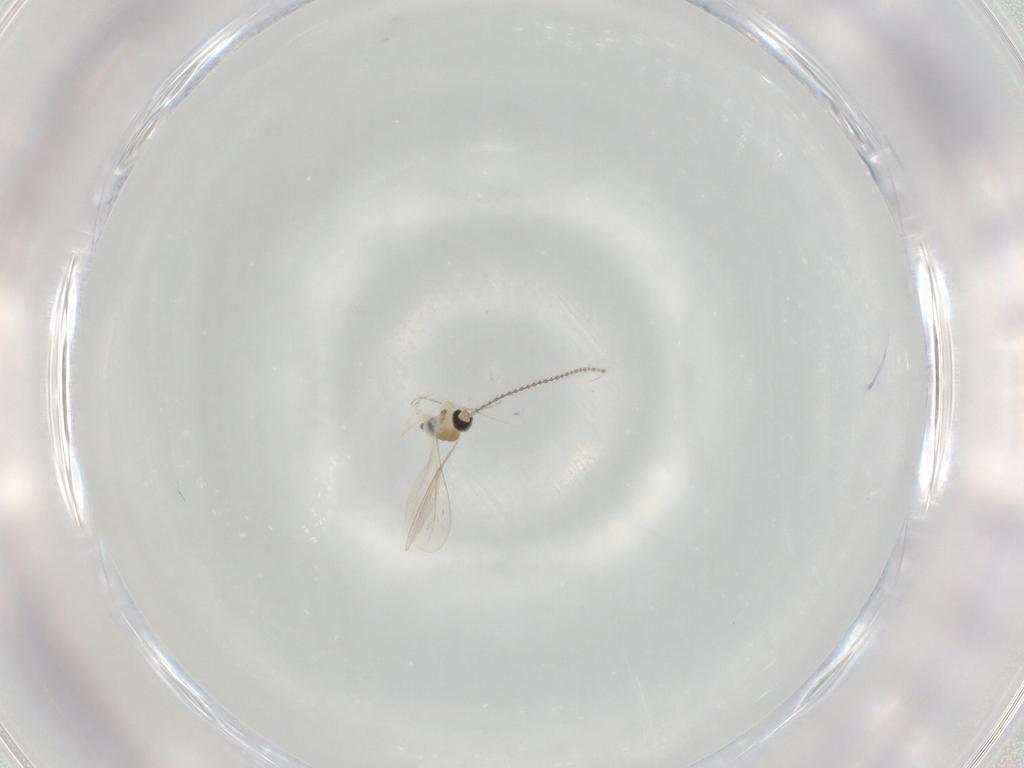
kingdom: Animalia
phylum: Arthropoda
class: Insecta
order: Diptera
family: Cecidomyiidae
